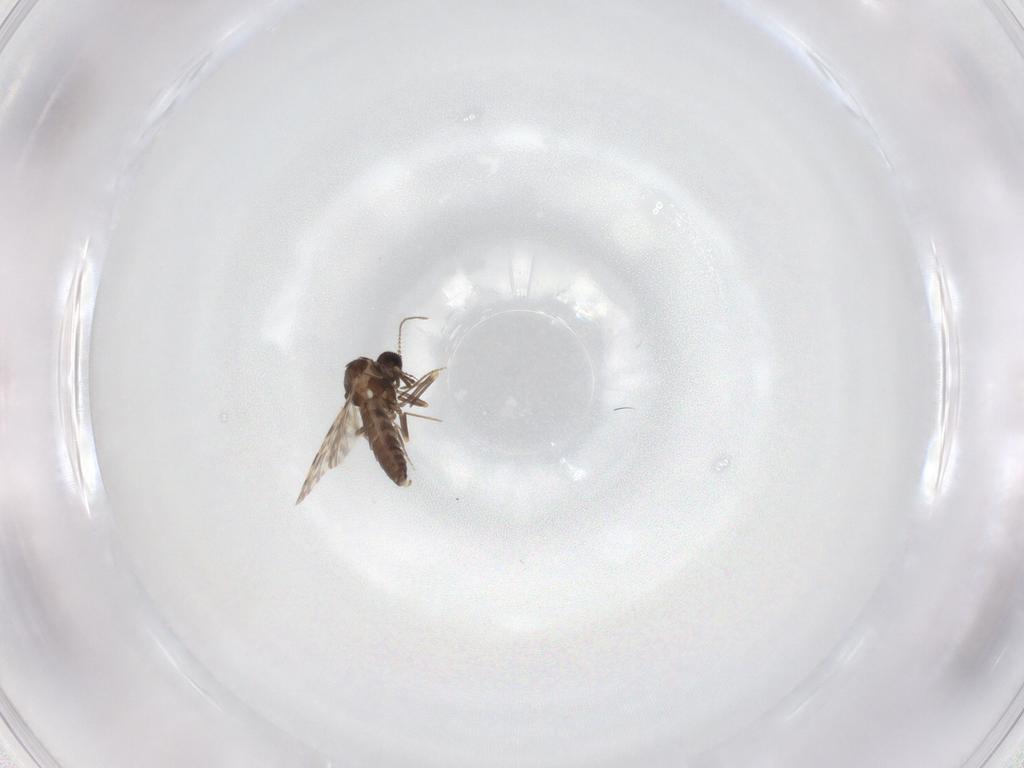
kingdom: Animalia
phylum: Arthropoda
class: Insecta
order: Diptera
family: Ceratopogonidae
